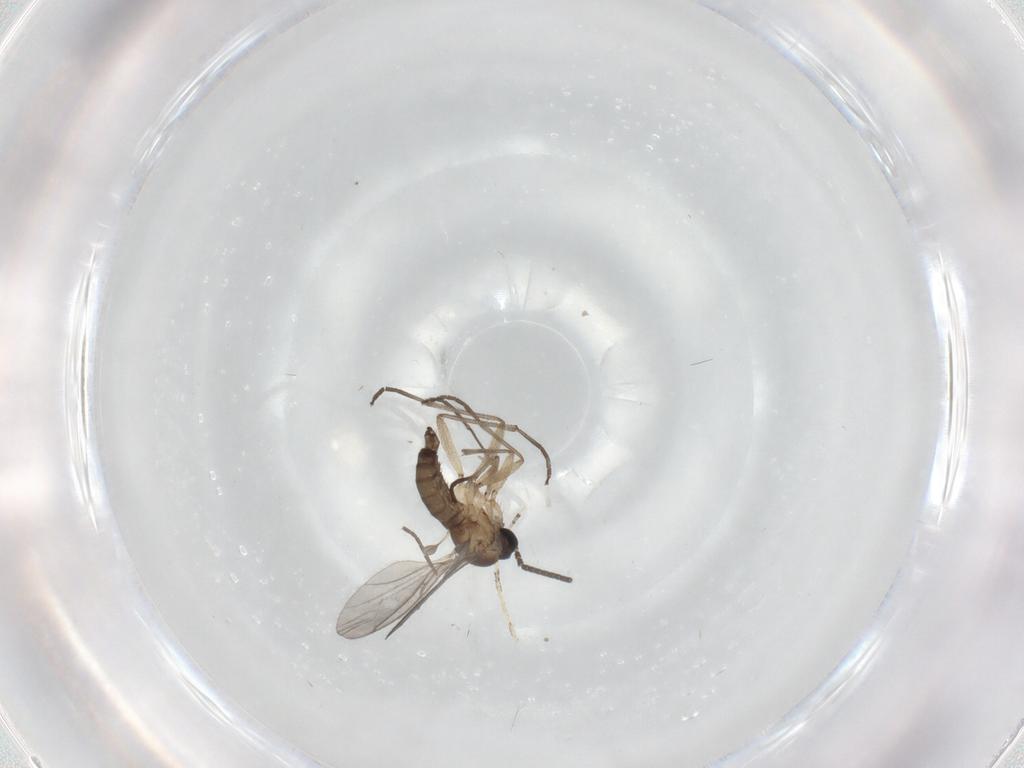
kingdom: Animalia
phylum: Arthropoda
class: Insecta
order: Diptera
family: Sciaridae
